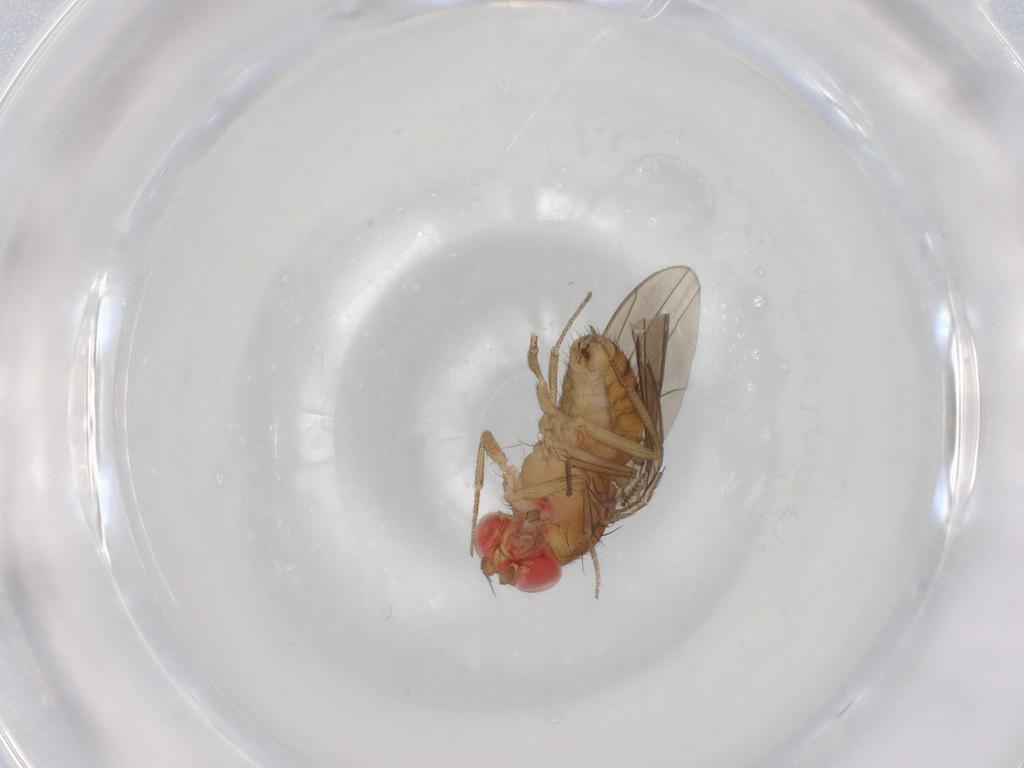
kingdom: Animalia
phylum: Arthropoda
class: Insecta
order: Diptera
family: Drosophilidae
